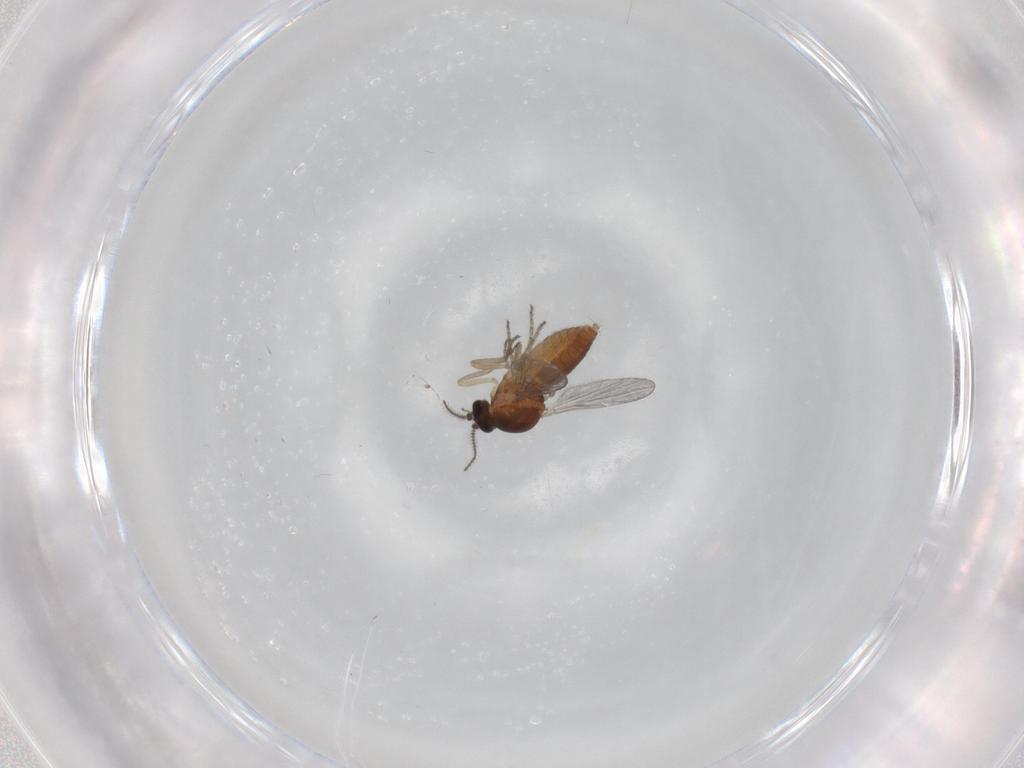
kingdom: Animalia
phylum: Arthropoda
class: Insecta
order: Diptera
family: Ceratopogonidae
